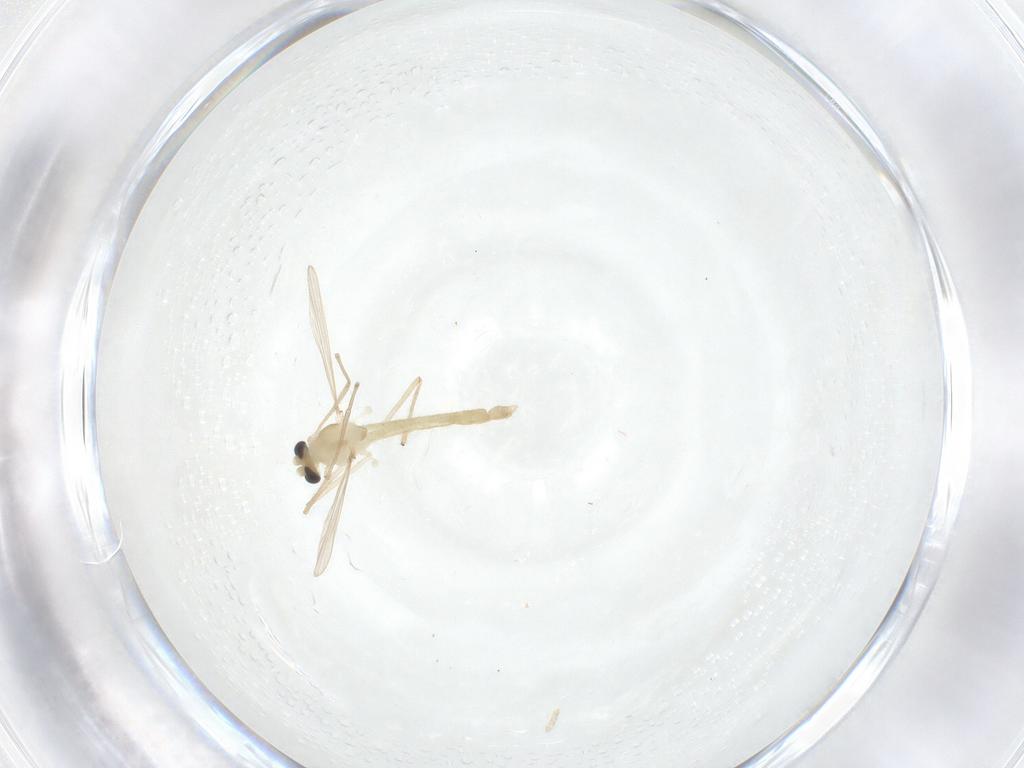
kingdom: Animalia
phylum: Arthropoda
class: Insecta
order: Diptera
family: Chironomidae
